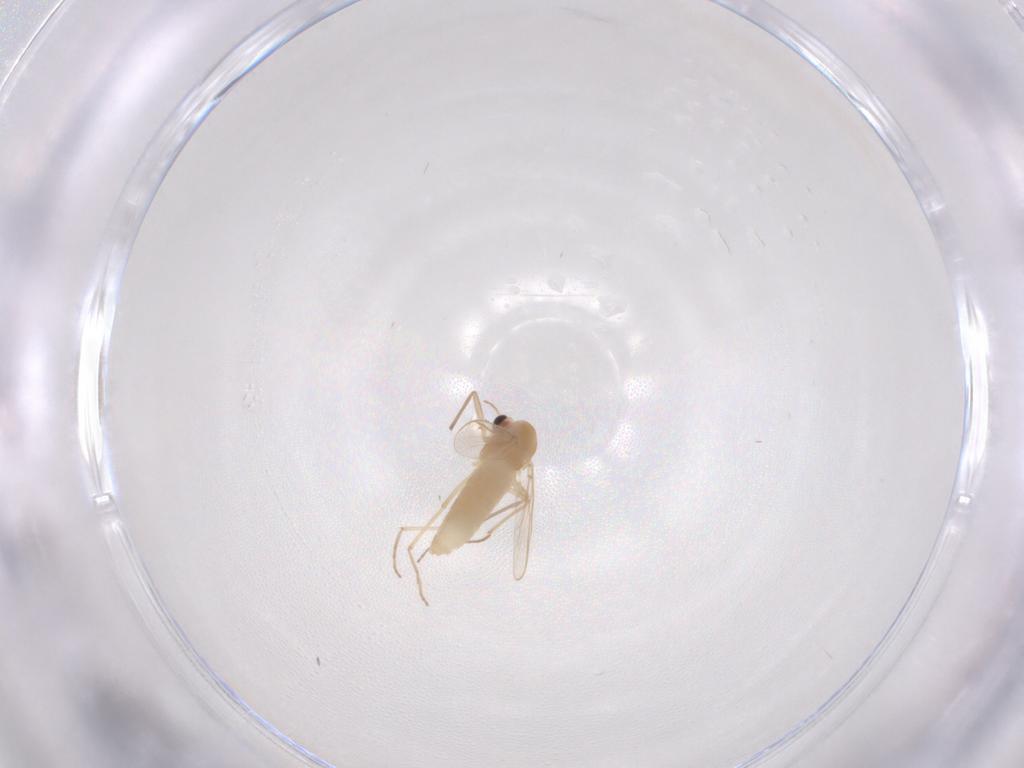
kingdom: Animalia
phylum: Arthropoda
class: Insecta
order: Diptera
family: Chironomidae
